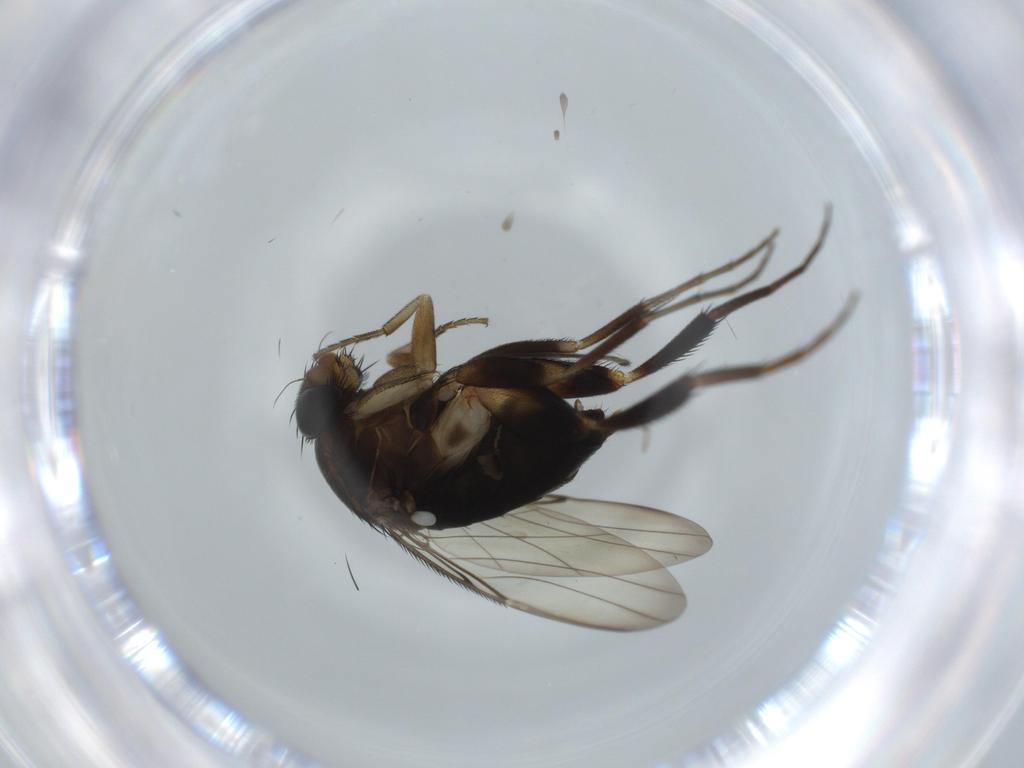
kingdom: Animalia
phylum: Arthropoda
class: Insecta
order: Diptera
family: Phoridae
